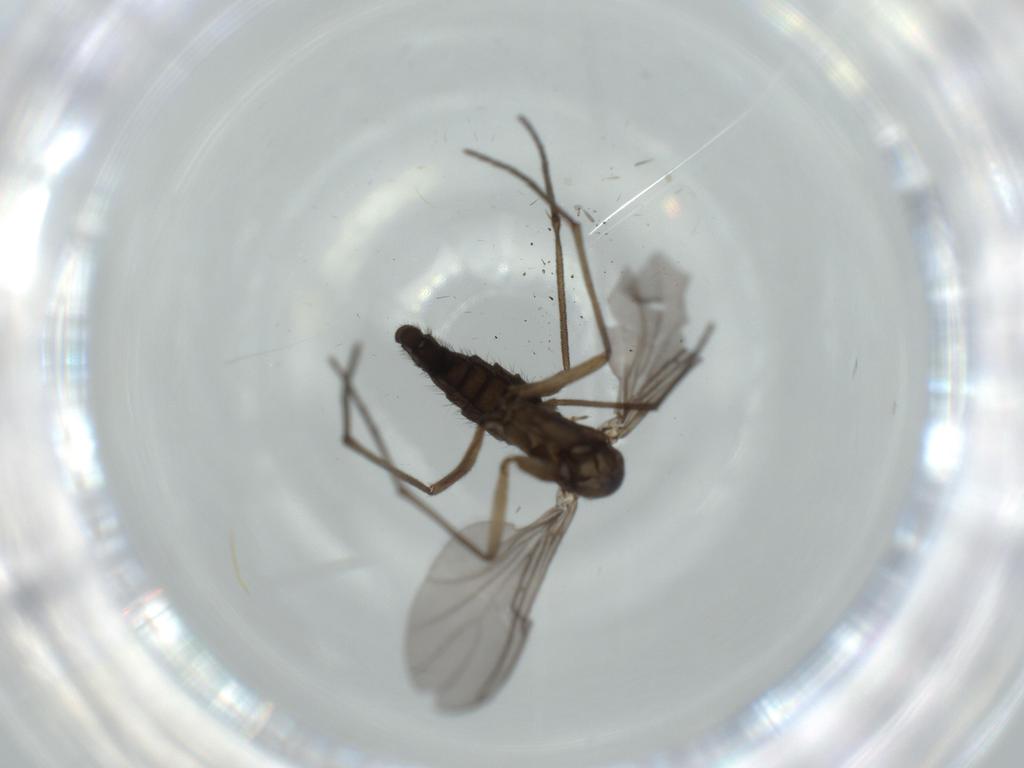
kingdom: Animalia
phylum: Arthropoda
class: Insecta
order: Diptera
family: Sciaridae
